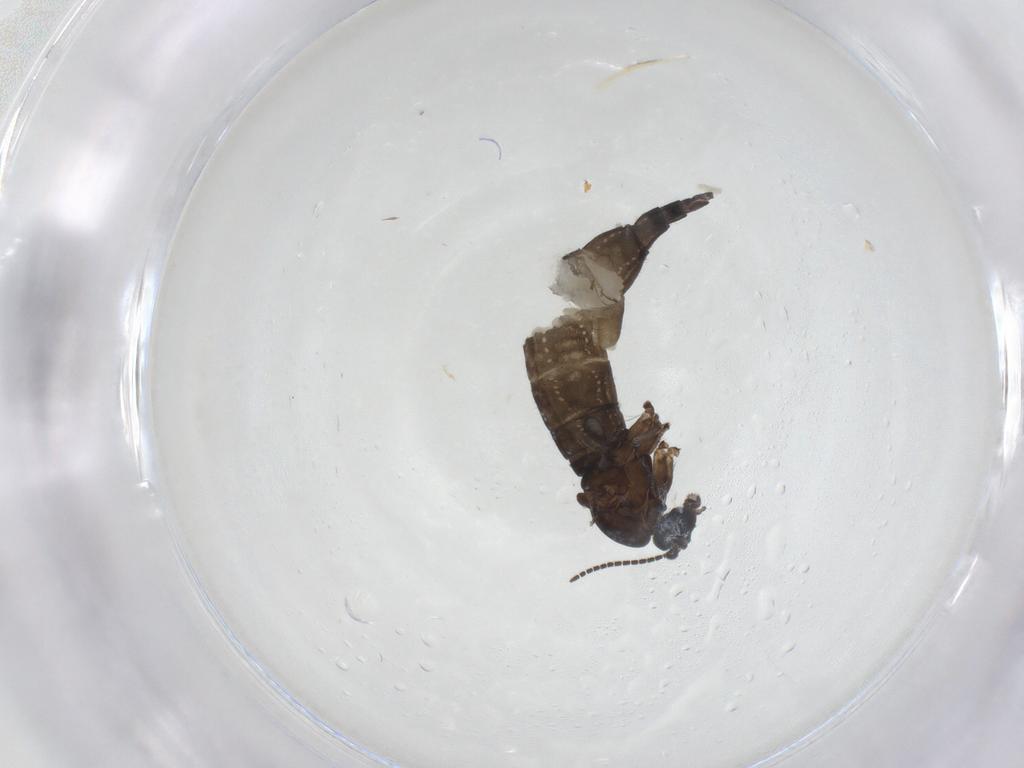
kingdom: Animalia
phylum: Arthropoda
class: Insecta
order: Diptera
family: Sciaridae
